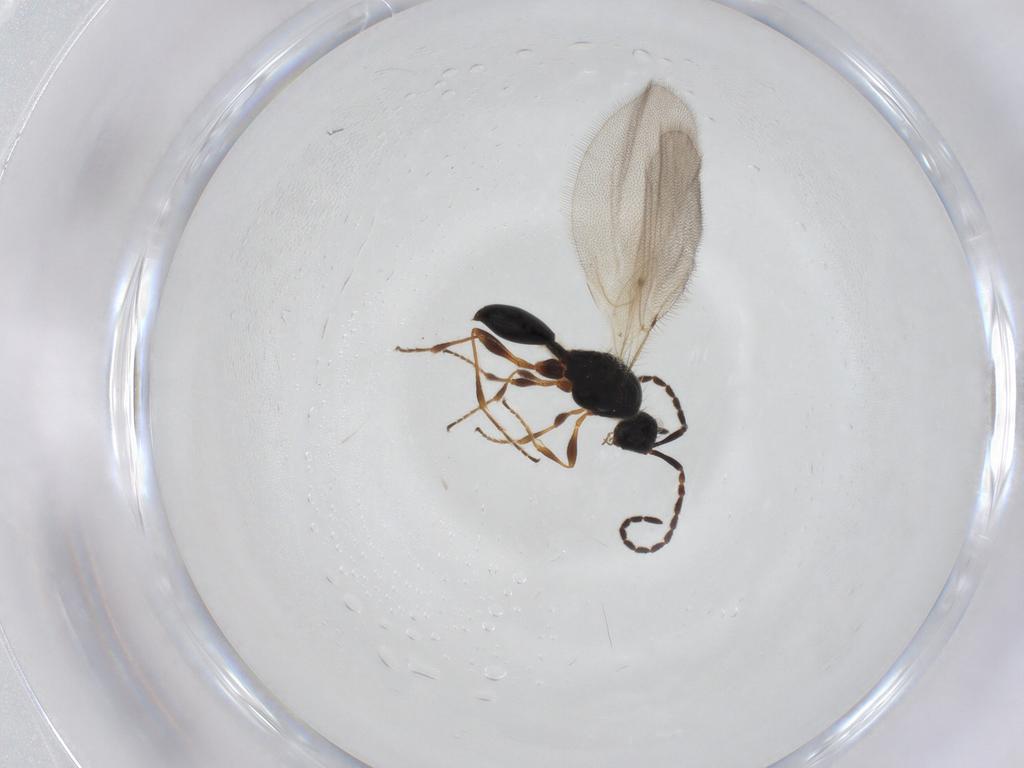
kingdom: Animalia
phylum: Arthropoda
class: Insecta
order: Hymenoptera
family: Diapriidae
